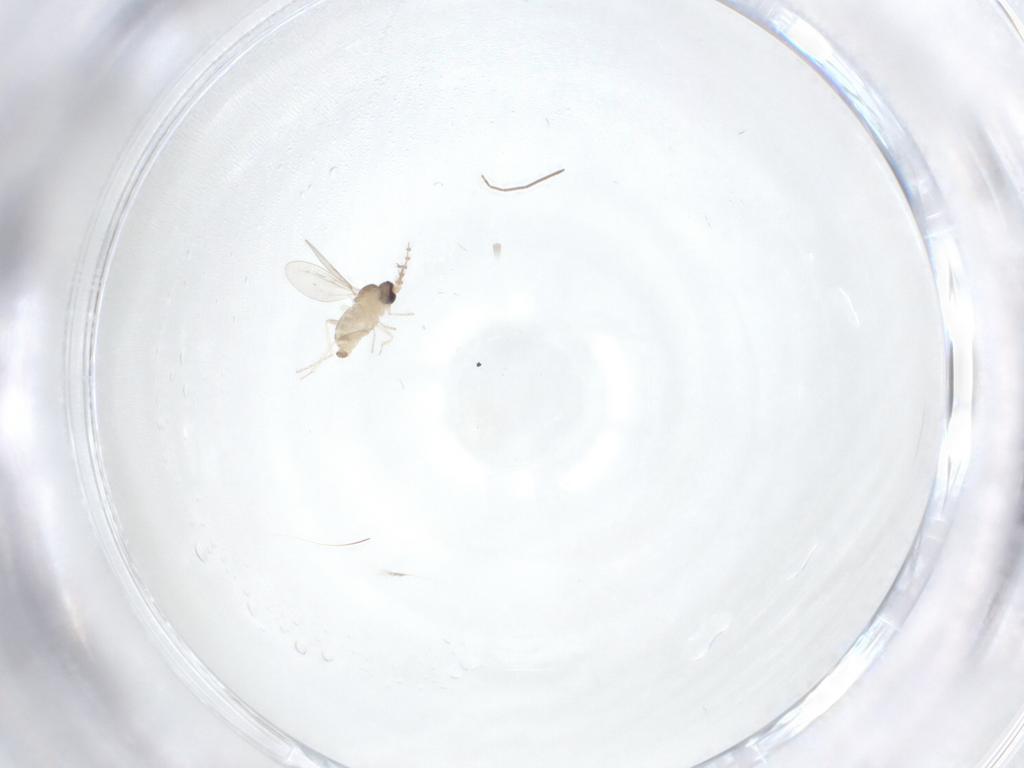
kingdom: Animalia
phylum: Arthropoda
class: Insecta
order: Diptera
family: Cecidomyiidae
